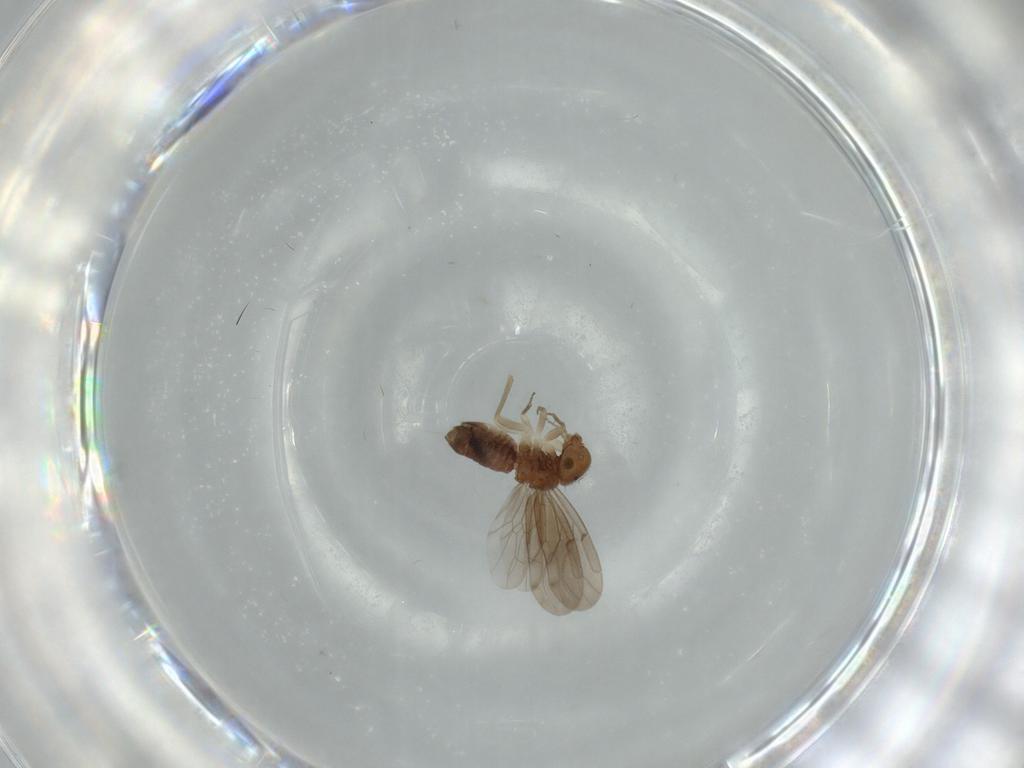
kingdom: Animalia
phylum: Arthropoda
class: Insecta
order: Psocodea
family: Ectopsocidae
